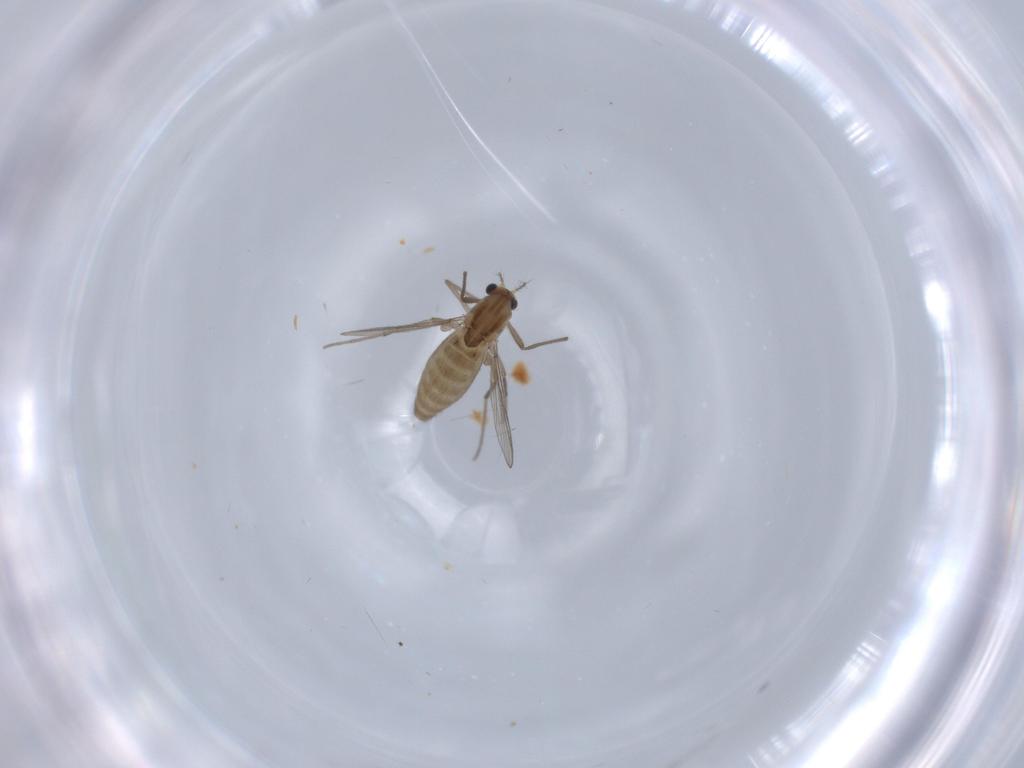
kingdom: Animalia
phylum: Arthropoda
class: Insecta
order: Diptera
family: Chironomidae
